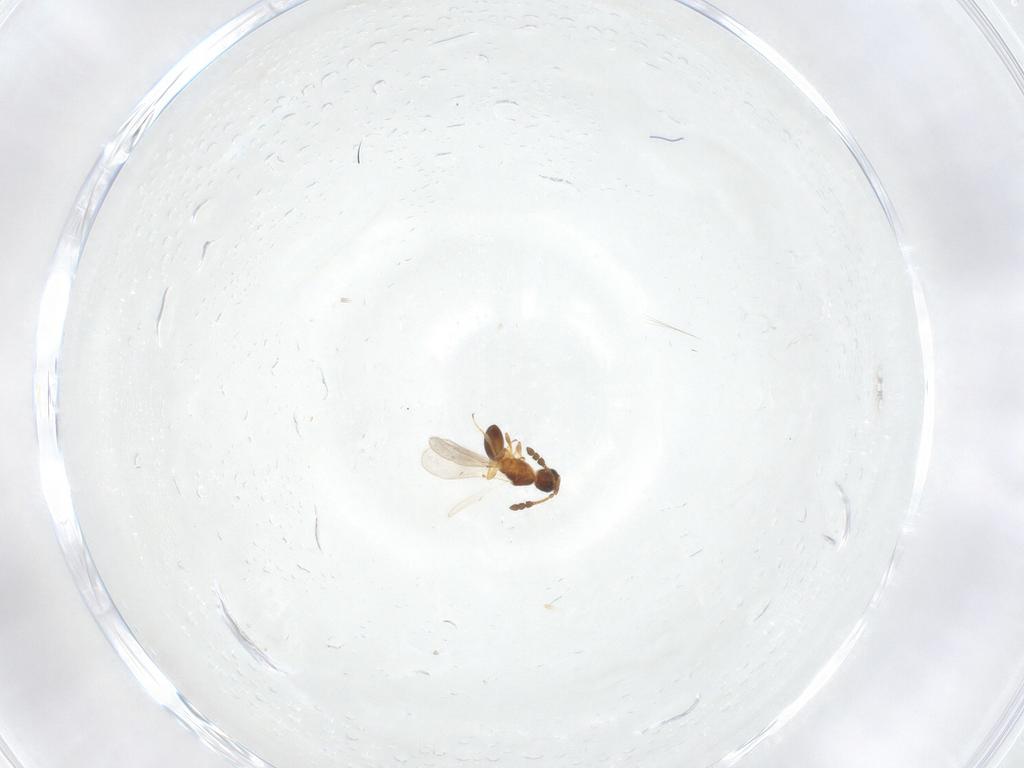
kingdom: Animalia
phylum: Arthropoda
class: Insecta
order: Hymenoptera
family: Diapriidae
